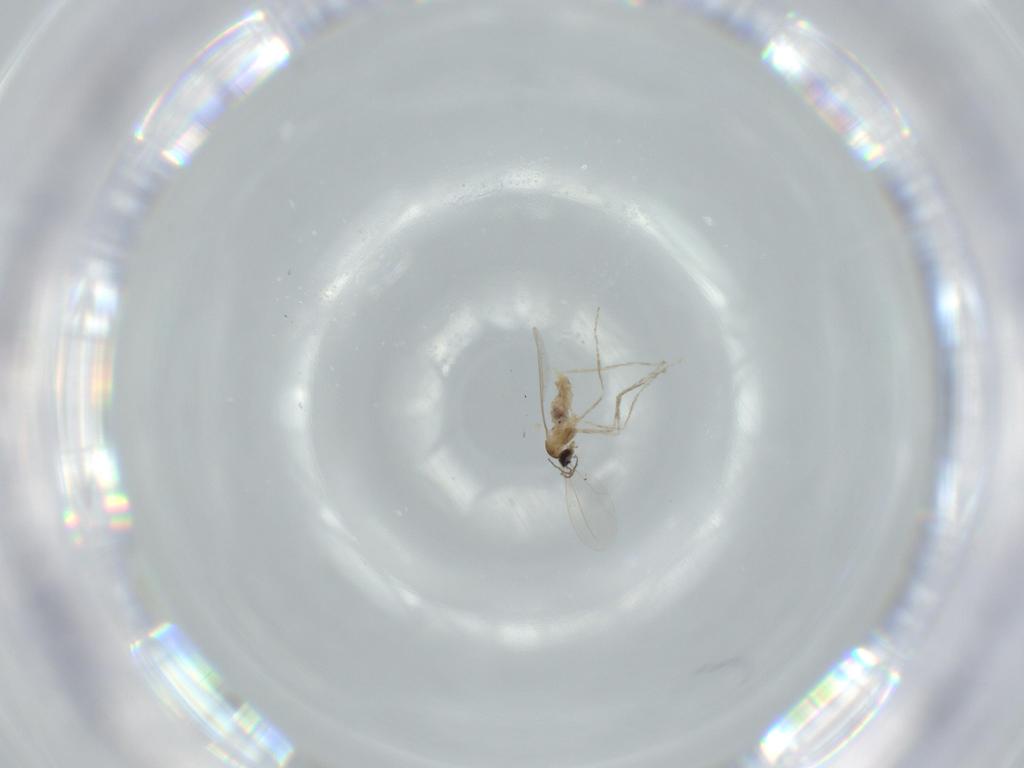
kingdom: Animalia
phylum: Arthropoda
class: Insecta
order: Diptera
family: Cecidomyiidae
